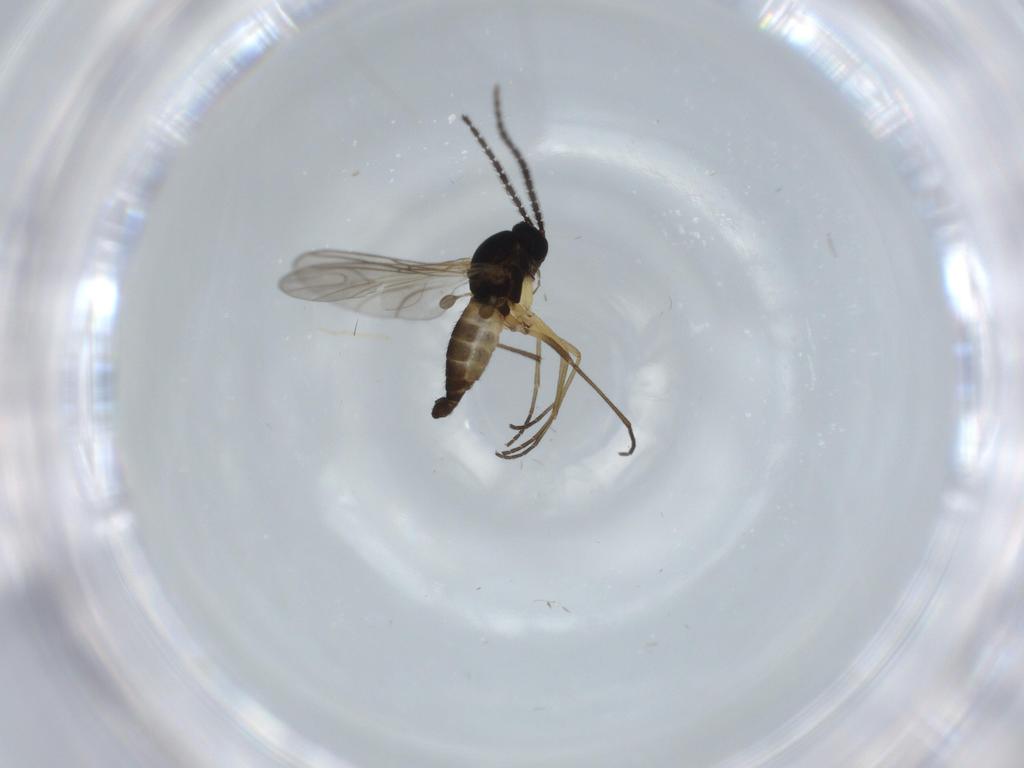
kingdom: Animalia
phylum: Arthropoda
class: Insecta
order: Diptera
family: Sciaridae
